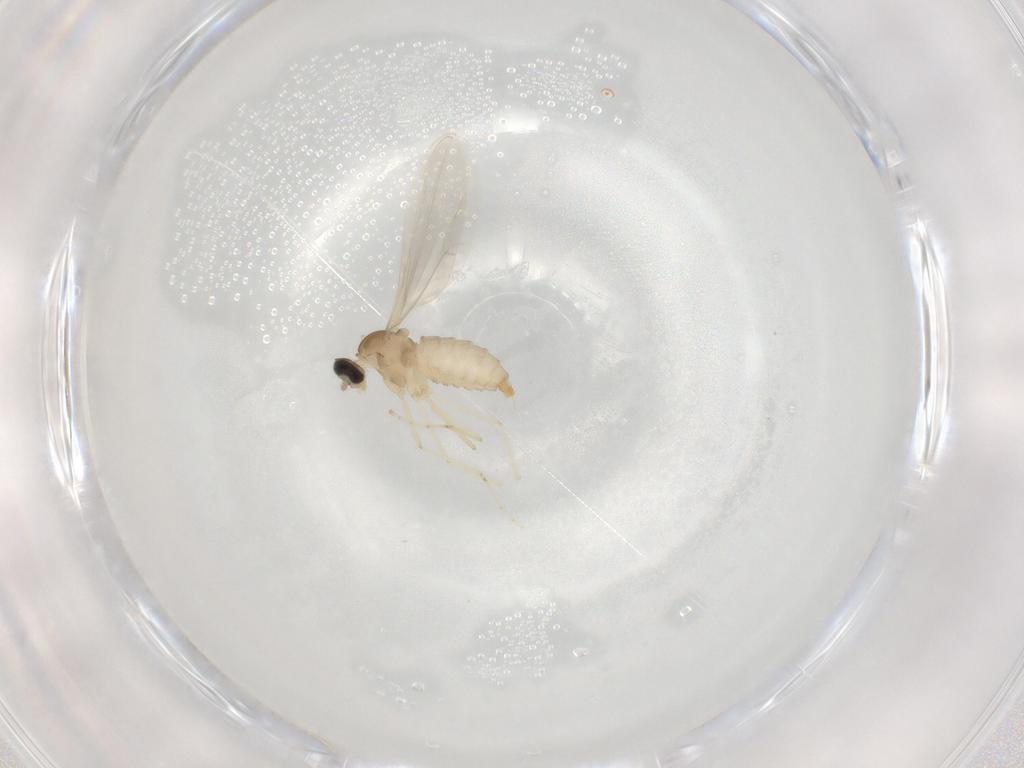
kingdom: Animalia
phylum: Arthropoda
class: Insecta
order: Diptera
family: Cecidomyiidae
